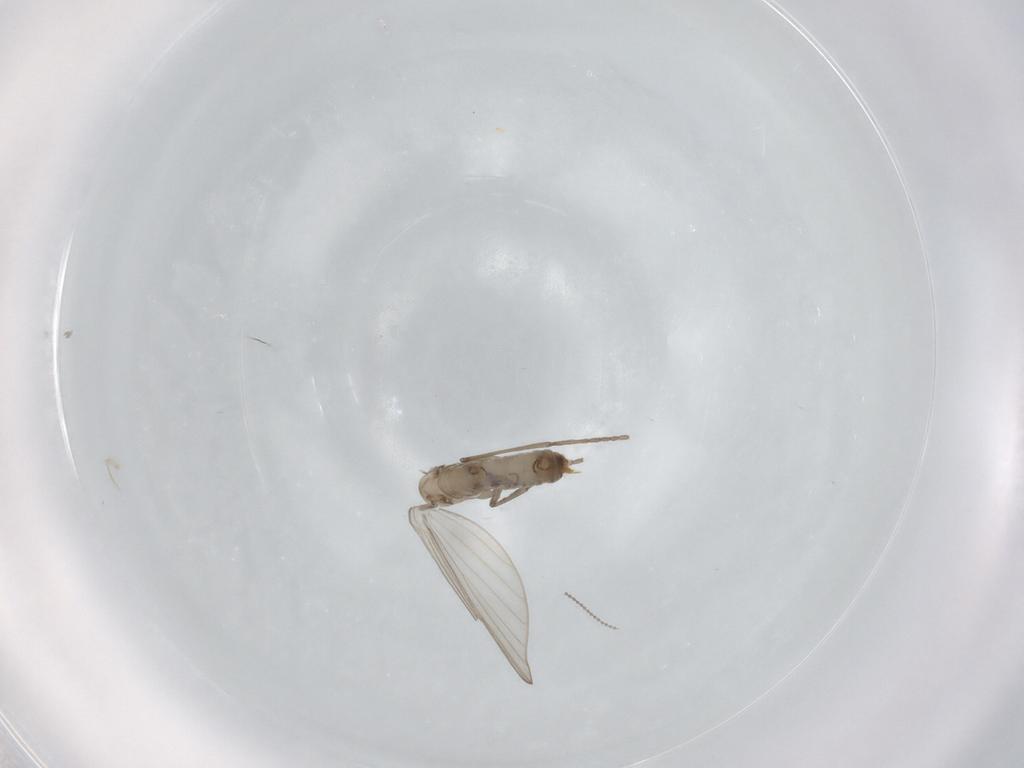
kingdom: Animalia
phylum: Arthropoda
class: Insecta
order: Diptera
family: Psychodidae
